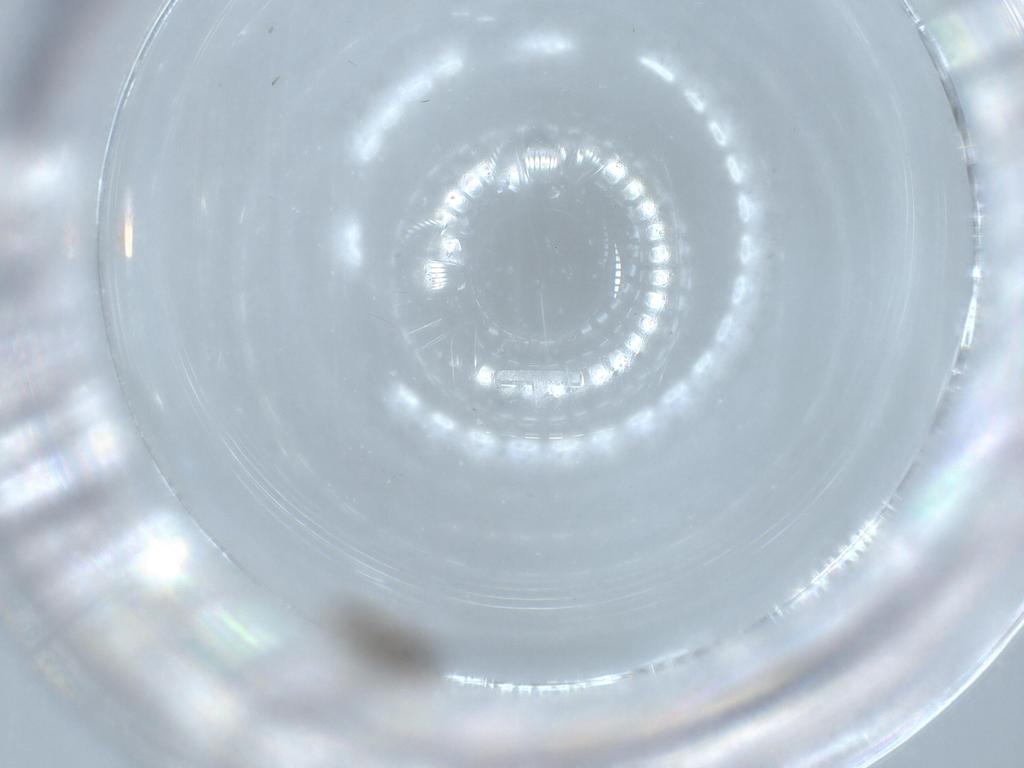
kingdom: Animalia
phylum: Arthropoda
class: Insecta
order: Diptera
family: Cecidomyiidae
